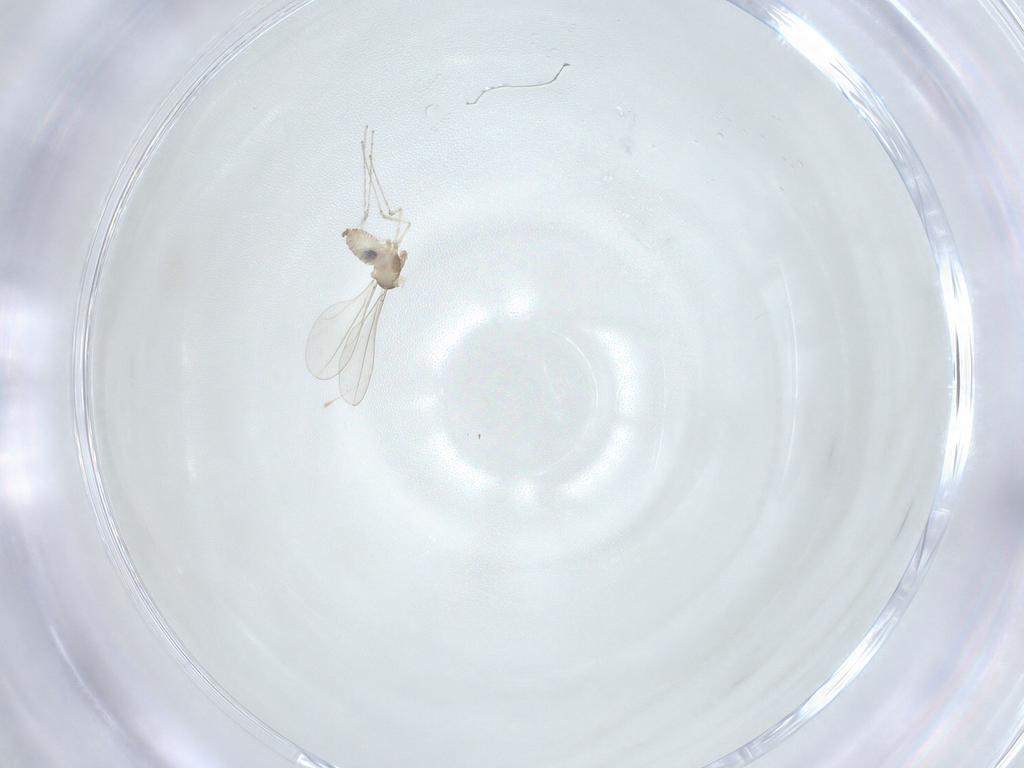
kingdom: Animalia
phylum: Arthropoda
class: Insecta
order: Diptera
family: Cecidomyiidae
